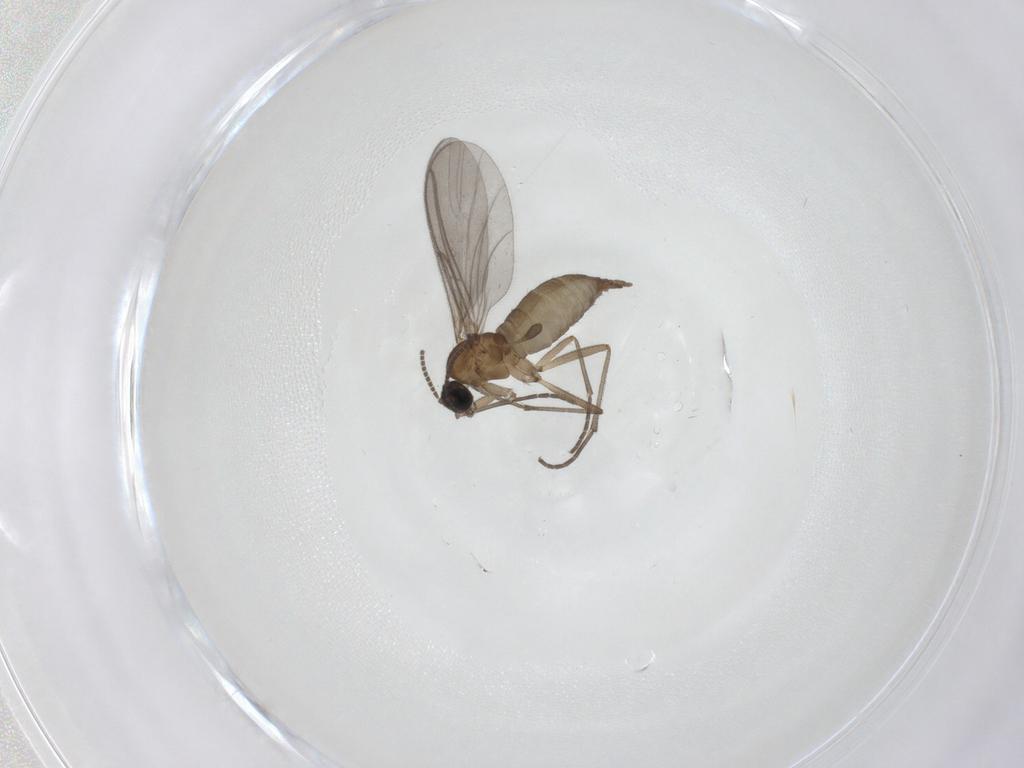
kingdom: Animalia
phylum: Arthropoda
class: Insecta
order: Diptera
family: Sciaridae
